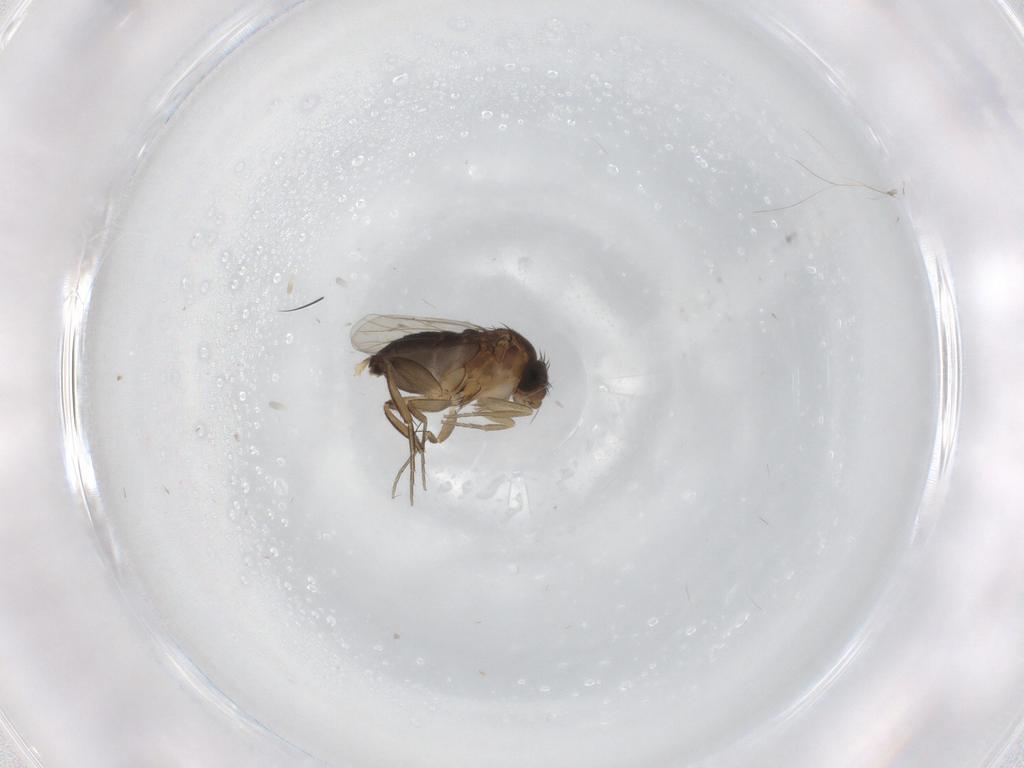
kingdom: Animalia
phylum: Arthropoda
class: Insecta
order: Diptera
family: Phoridae
